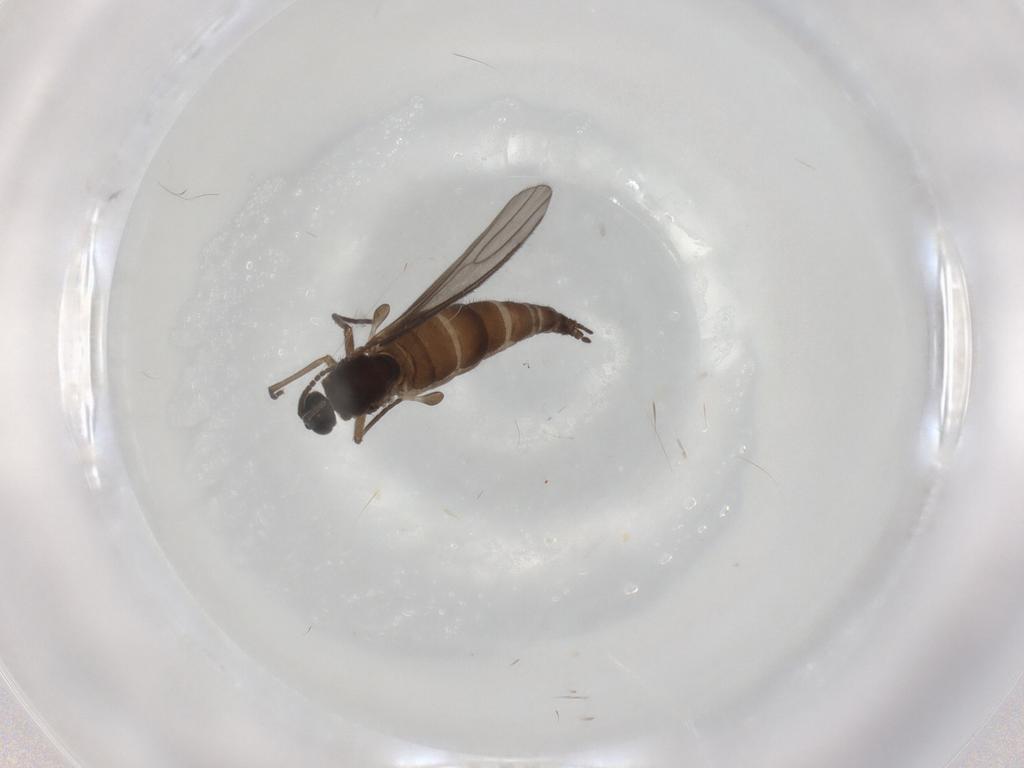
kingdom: Animalia
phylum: Arthropoda
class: Insecta
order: Diptera
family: Sciaridae
